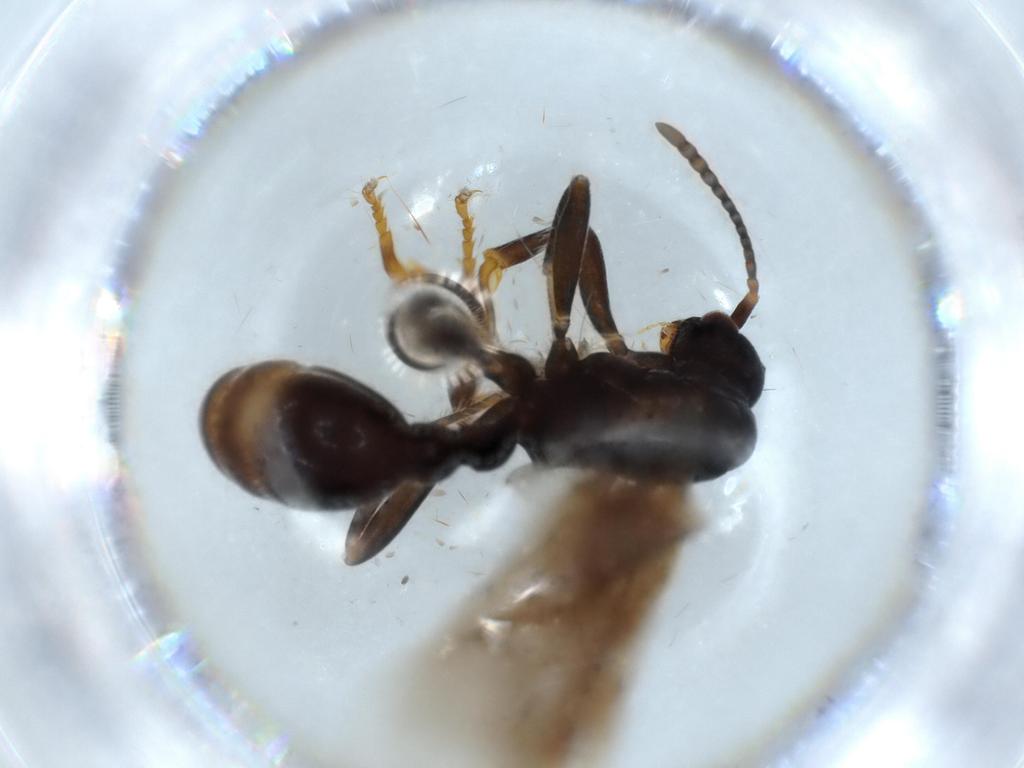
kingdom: Animalia
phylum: Arthropoda
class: Insecta
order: Hymenoptera
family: Formicidae
